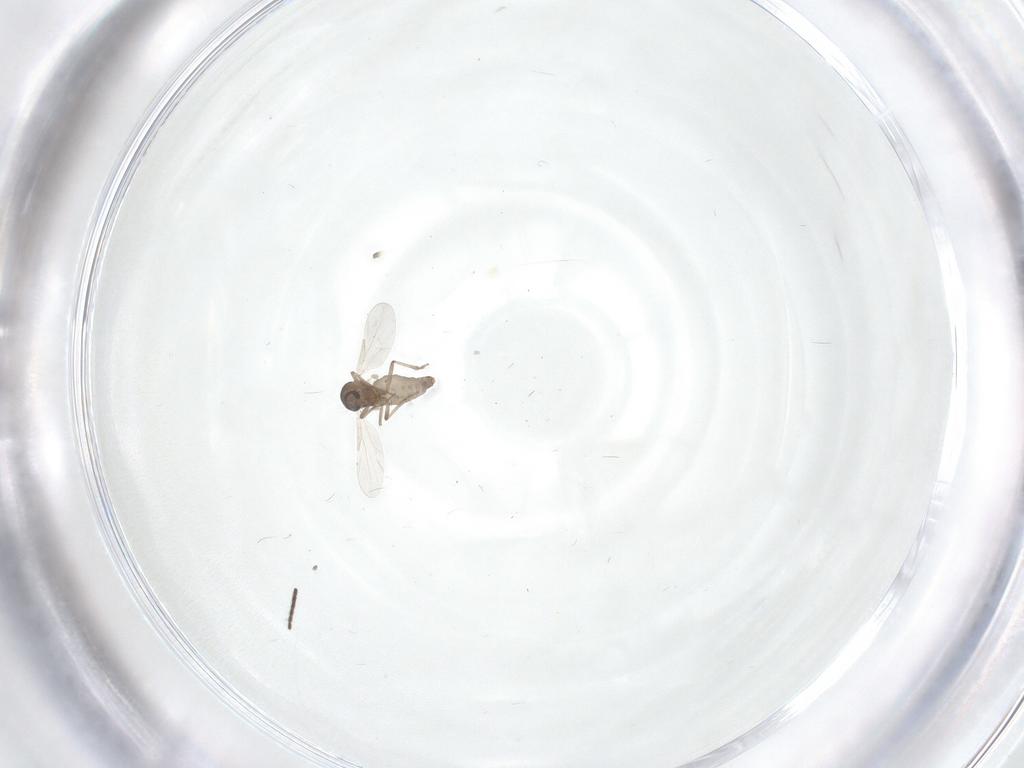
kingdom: Animalia
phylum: Arthropoda
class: Insecta
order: Diptera
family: Sciaridae
